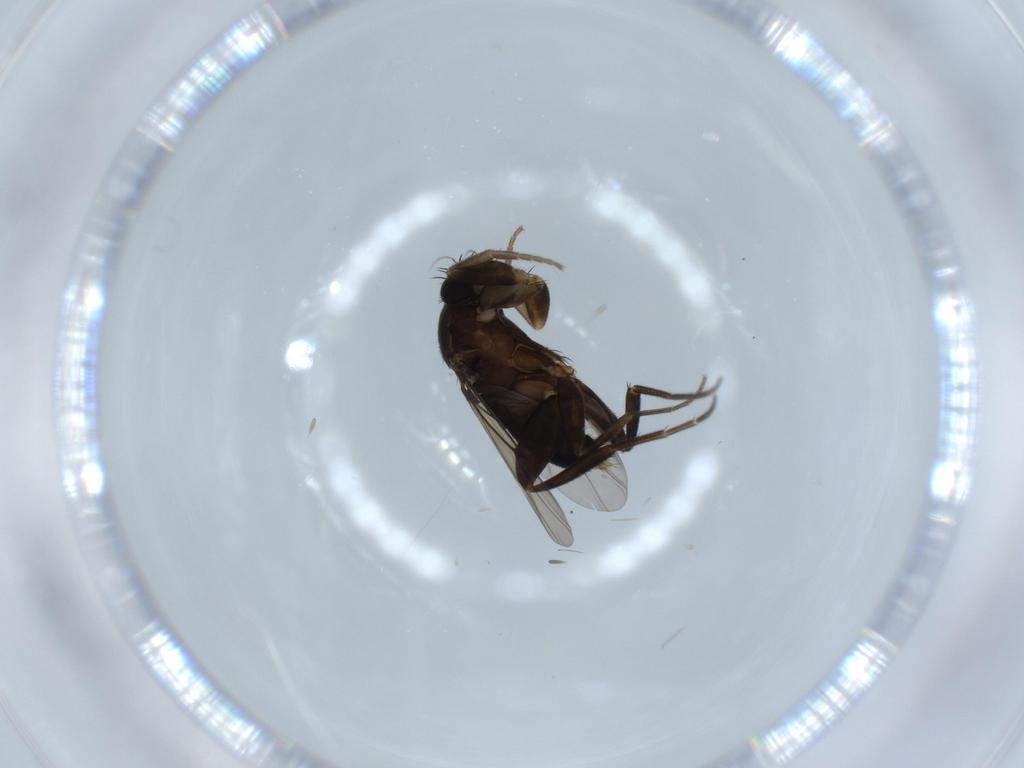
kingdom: Animalia
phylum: Arthropoda
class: Insecta
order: Diptera
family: Phoridae
